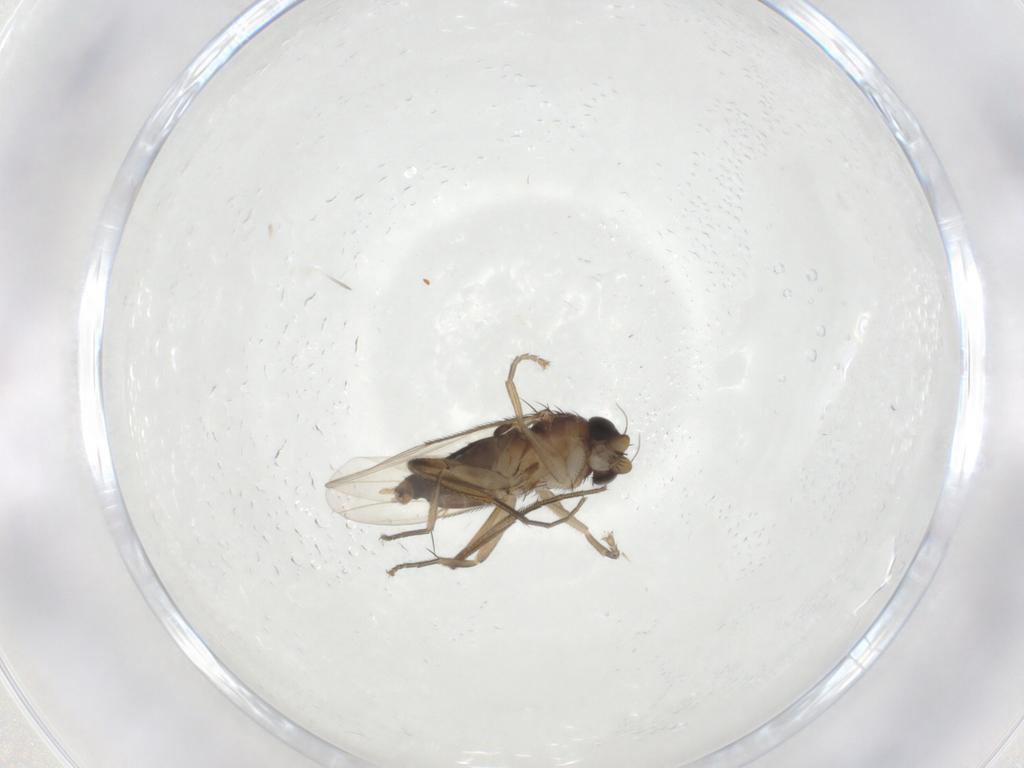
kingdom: Animalia
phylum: Arthropoda
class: Insecta
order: Diptera
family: Phoridae
